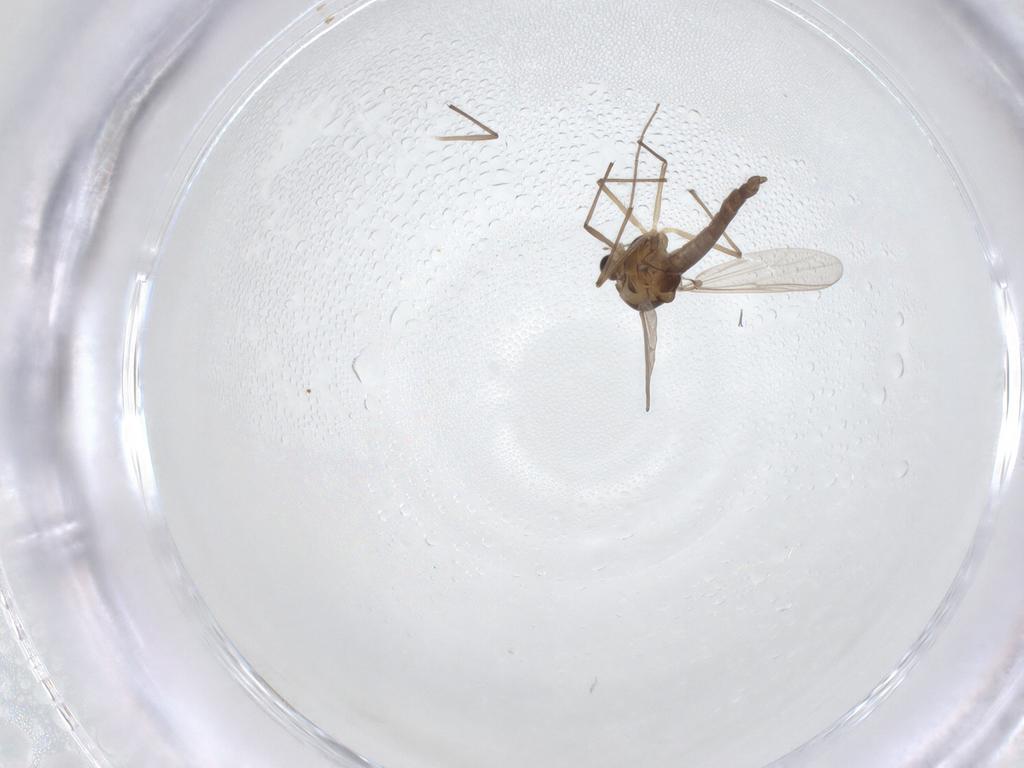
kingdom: Animalia
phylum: Arthropoda
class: Insecta
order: Diptera
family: Chironomidae
